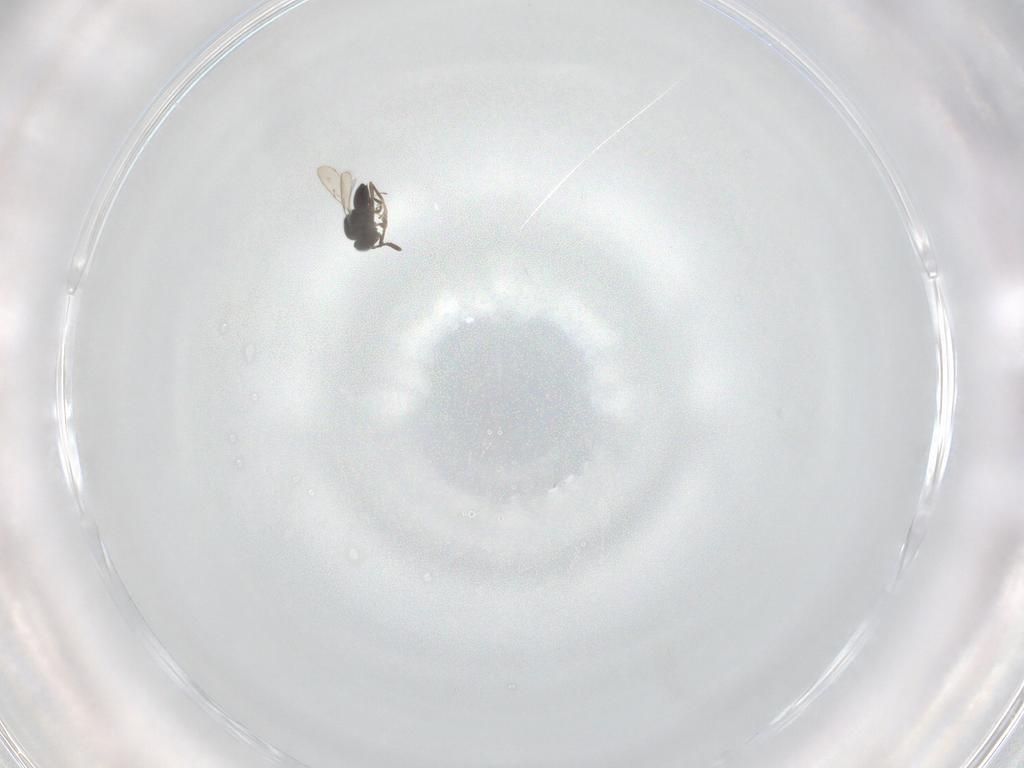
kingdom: Animalia
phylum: Arthropoda
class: Insecta
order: Hymenoptera
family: Scelionidae
